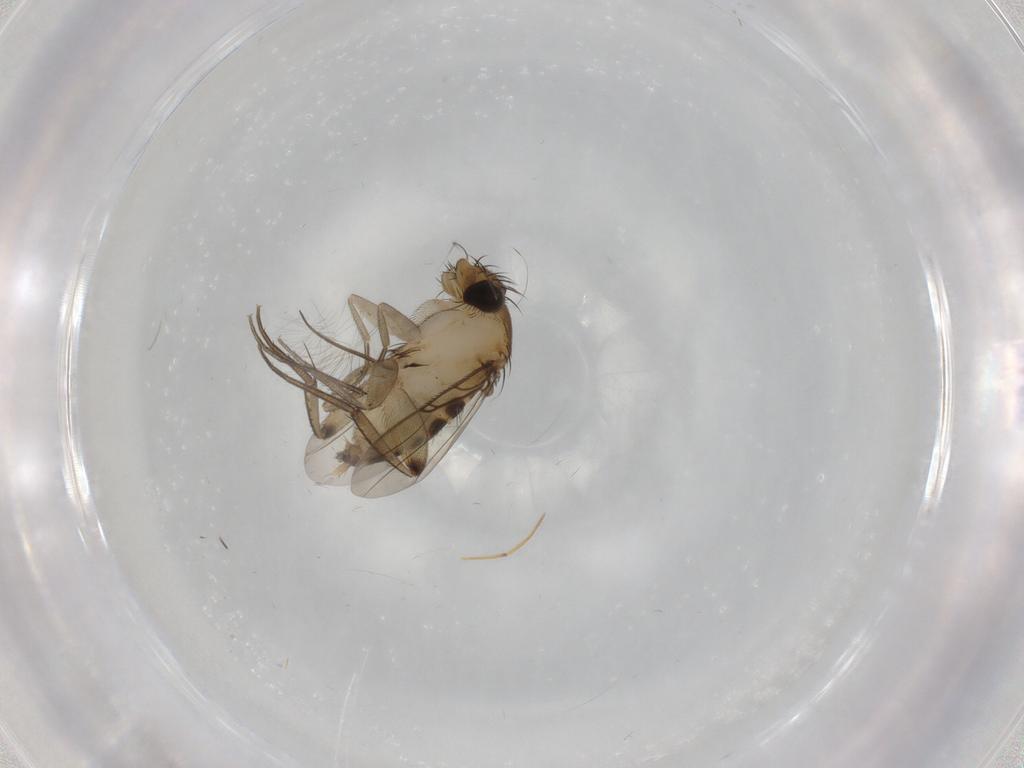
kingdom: Animalia
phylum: Arthropoda
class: Insecta
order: Diptera
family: Phoridae
